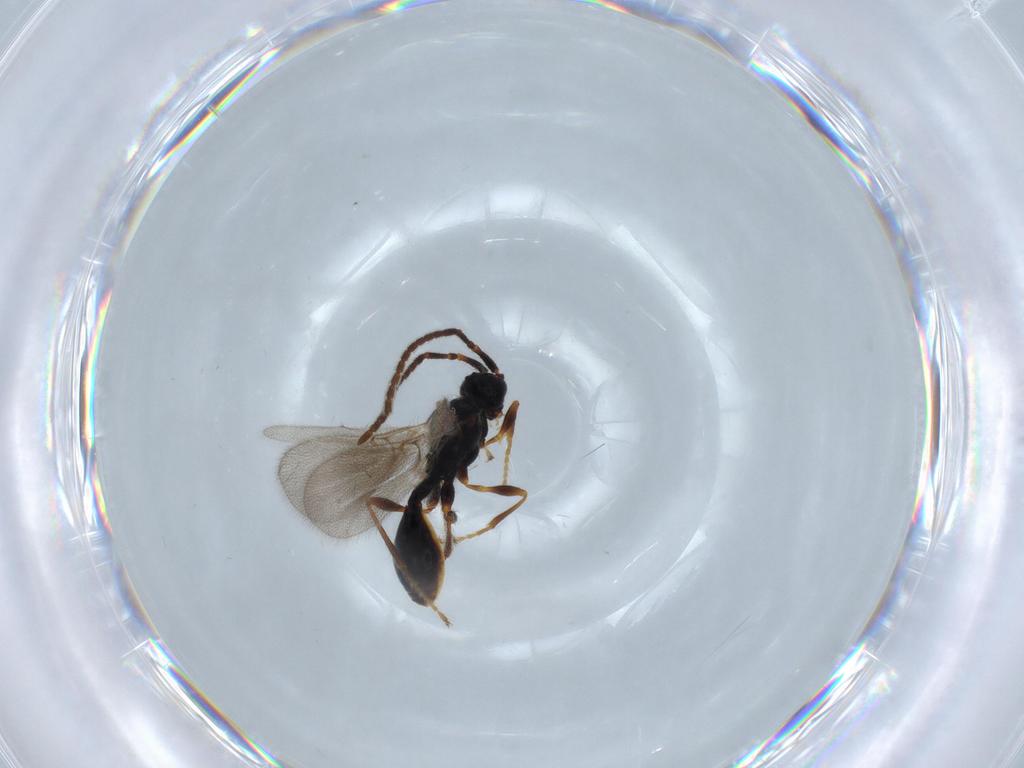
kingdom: Animalia
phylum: Arthropoda
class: Insecta
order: Hymenoptera
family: Diapriidae
